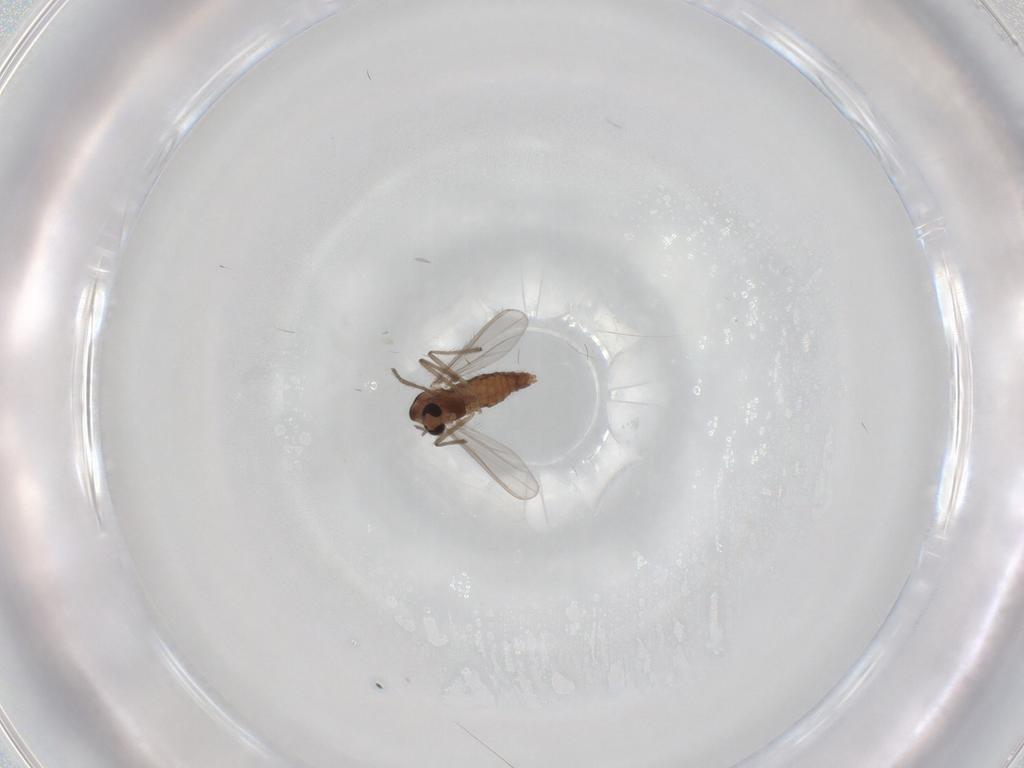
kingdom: Animalia
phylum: Arthropoda
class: Insecta
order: Diptera
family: Chironomidae
